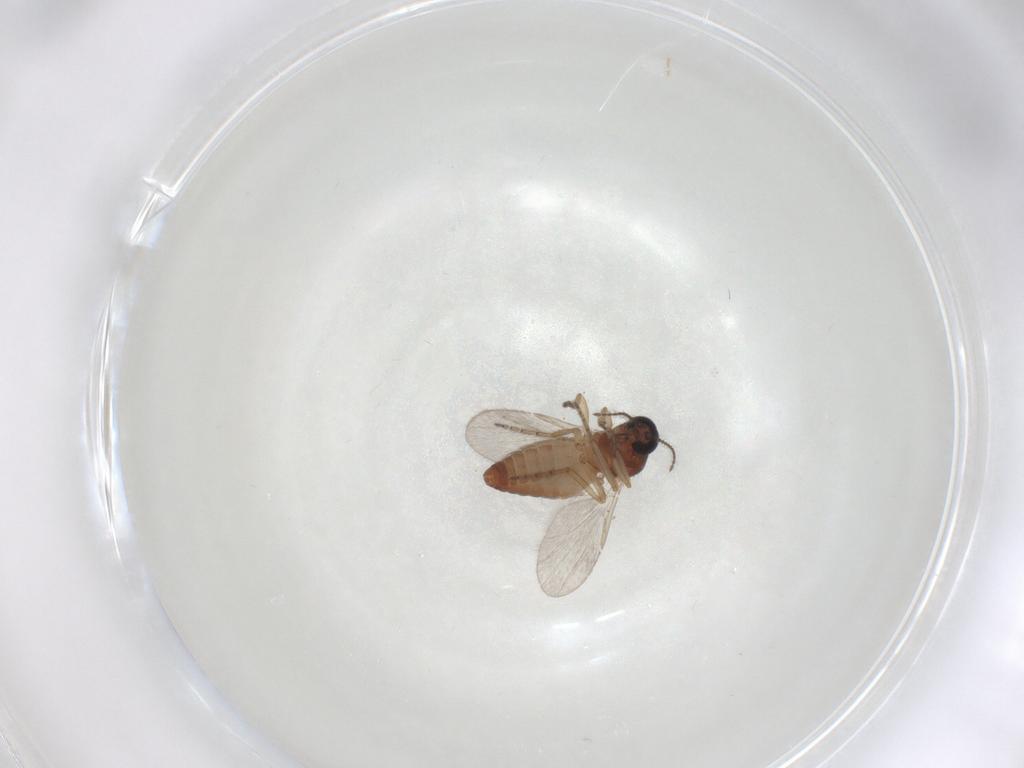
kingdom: Animalia
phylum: Arthropoda
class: Insecta
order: Diptera
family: Ceratopogonidae
